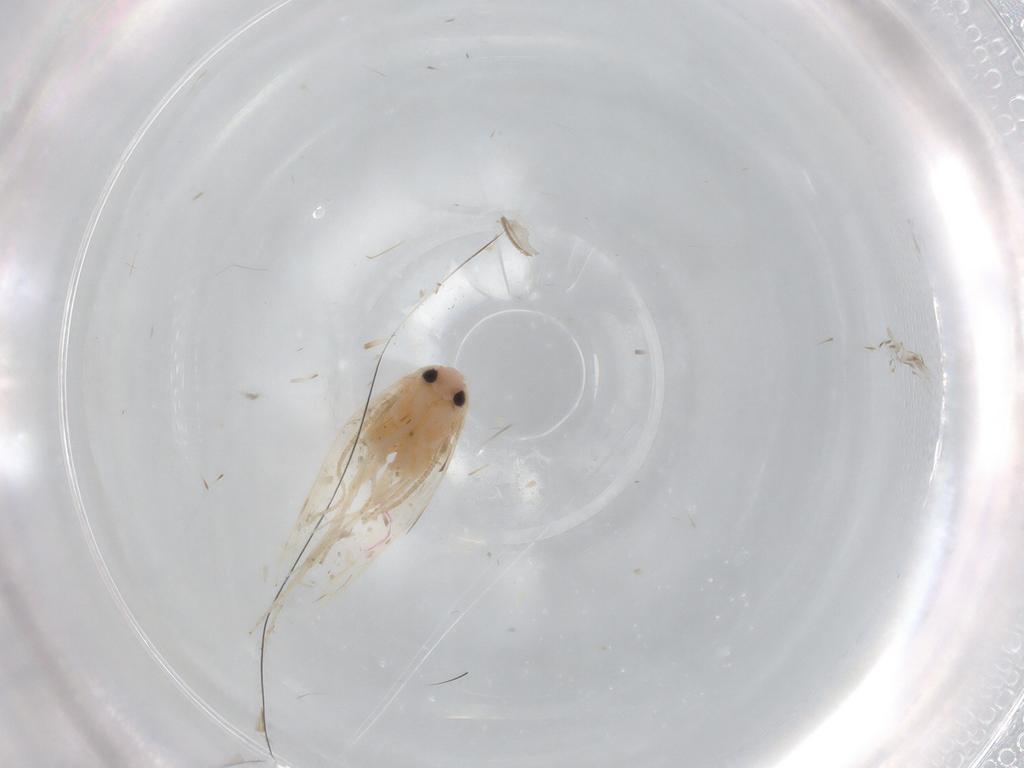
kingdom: Animalia
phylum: Arthropoda
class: Insecta
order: Lepidoptera
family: Lyonetiidae
